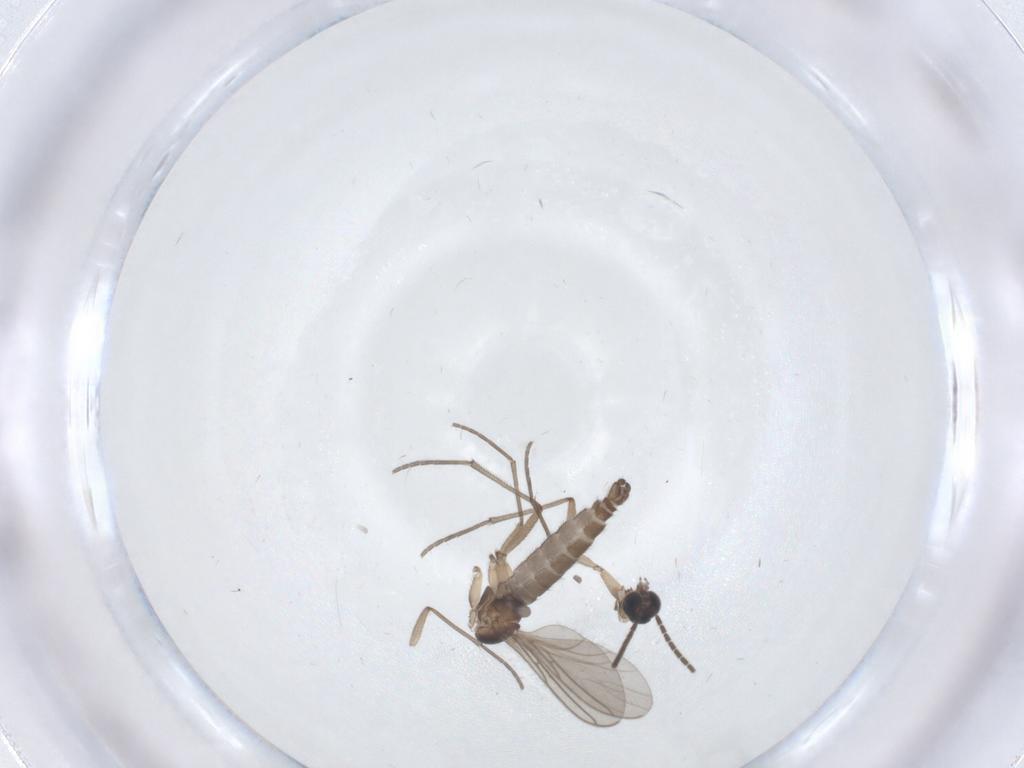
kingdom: Animalia
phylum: Arthropoda
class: Insecta
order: Diptera
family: Sciaridae
